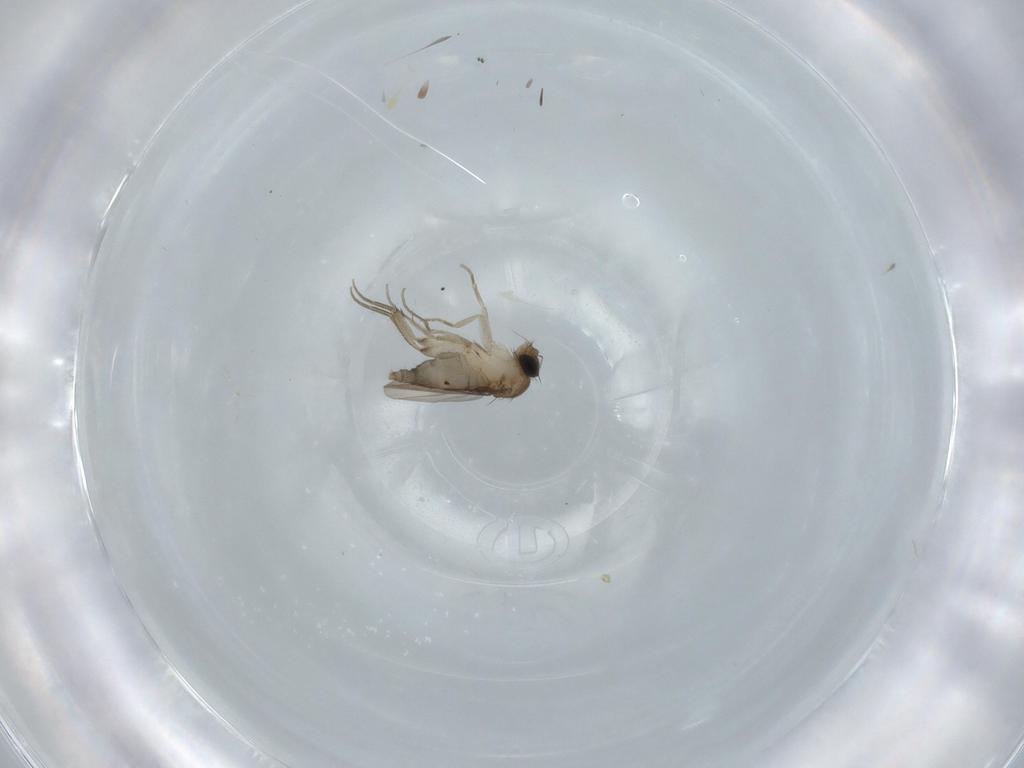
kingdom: Animalia
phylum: Arthropoda
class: Insecta
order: Diptera
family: Phoridae
